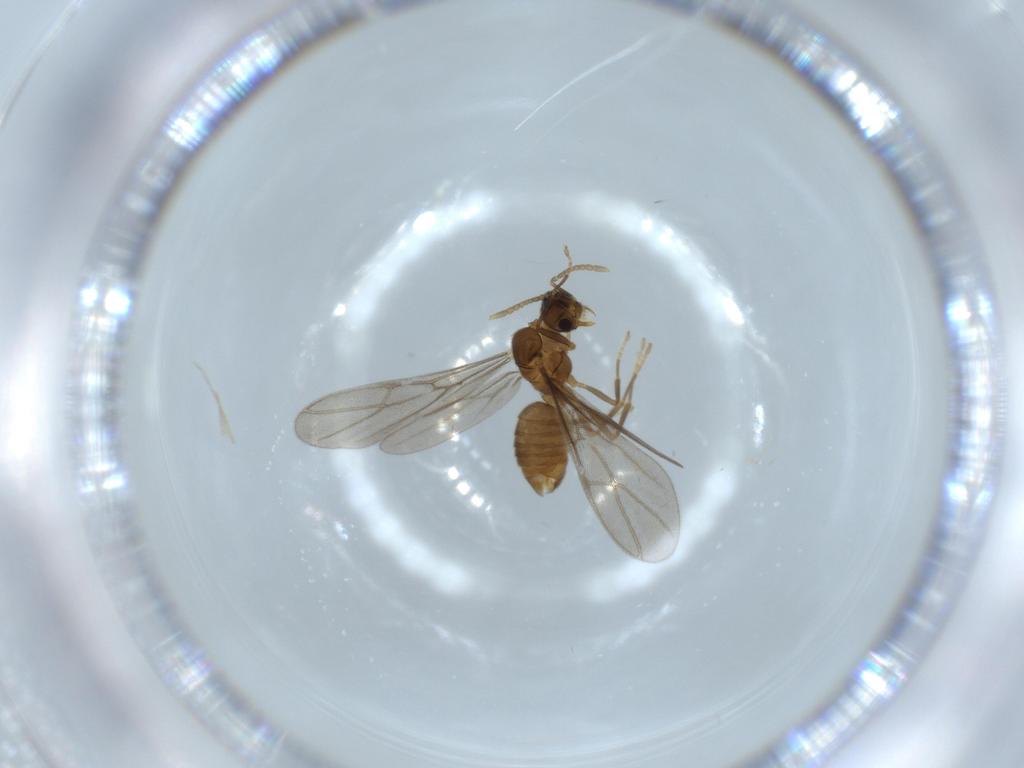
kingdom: Animalia
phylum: Arthropoda
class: Insecta
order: Hymenoptera
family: Formicidae
